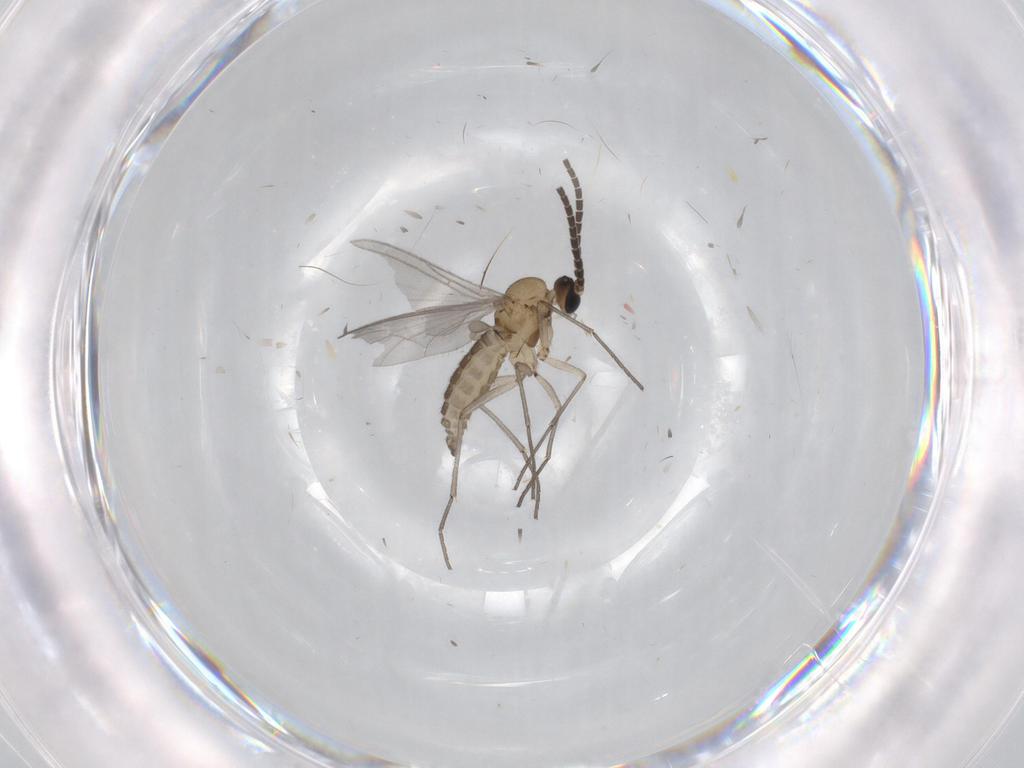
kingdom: Animalia
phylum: Arthropoda
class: Insecta
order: Diptera
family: Sciaridae
